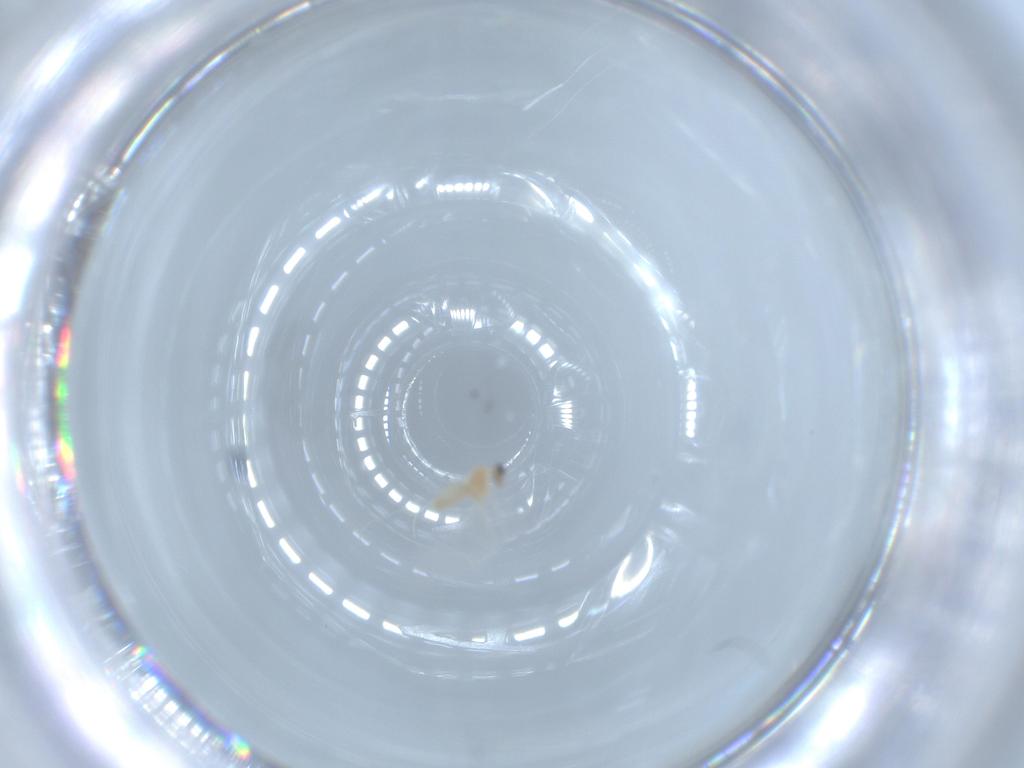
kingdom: Animalia
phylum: Arthropoda
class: Insecta
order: Diptera
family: Cecidomyiidae
